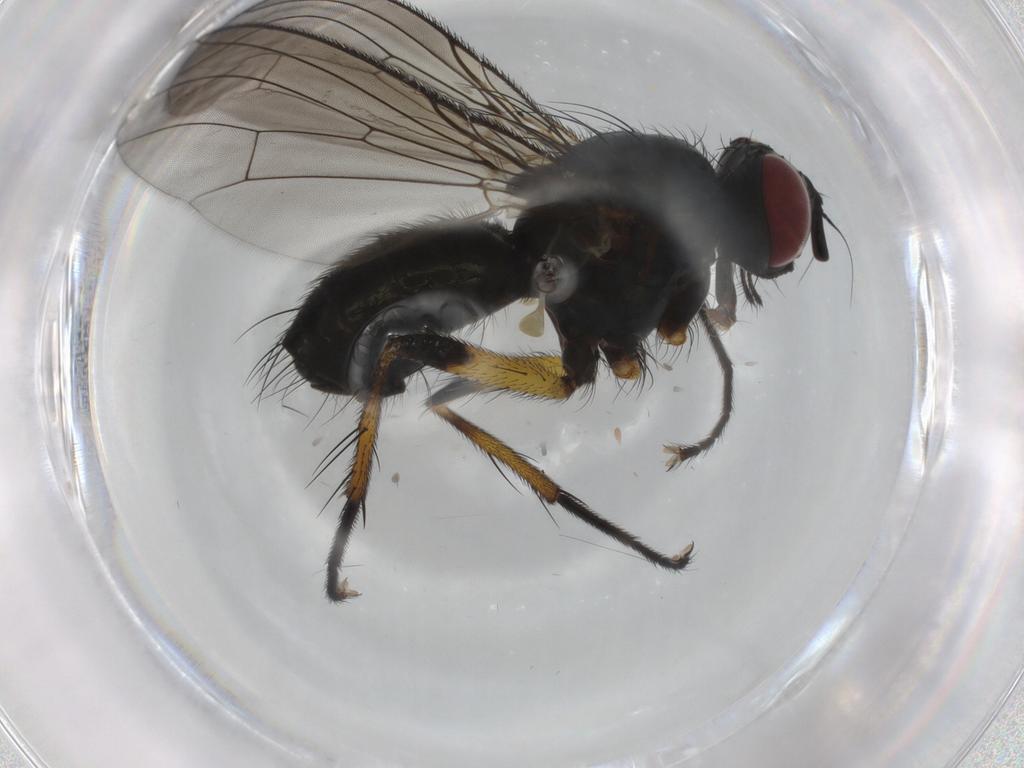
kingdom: Animalia
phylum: Arthropoda
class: Insecta
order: Diptera
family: Muscidae
